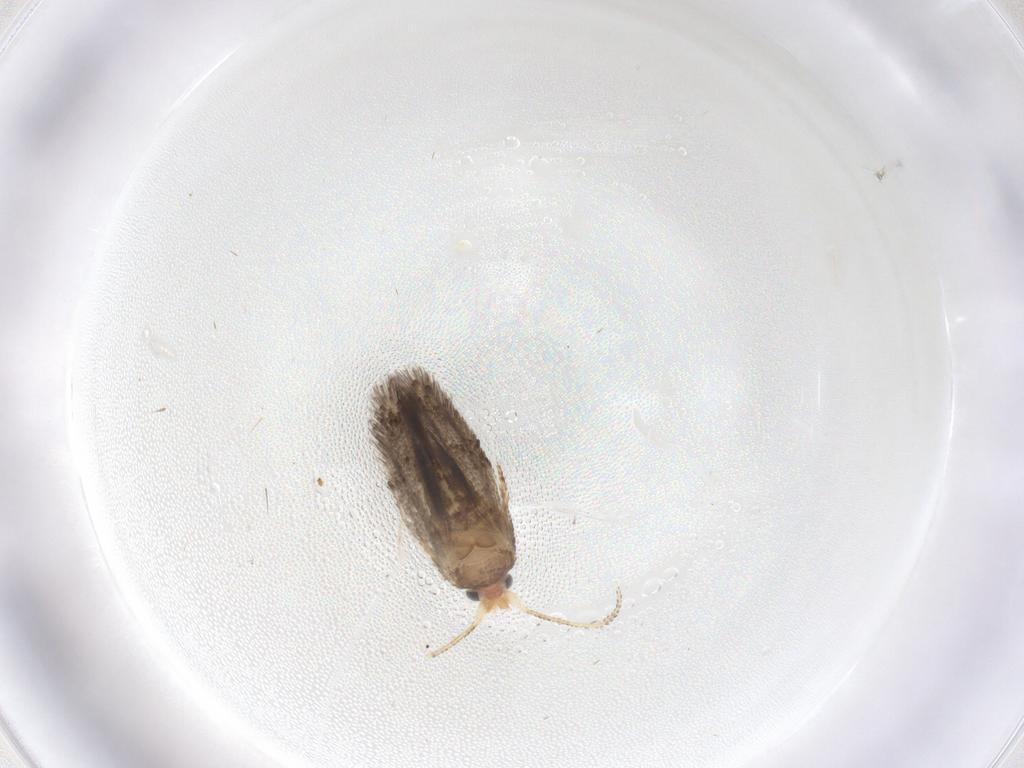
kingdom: Animalia
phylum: Arthropoda
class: Insecta
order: Lepidoptera
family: Nepticulidae
